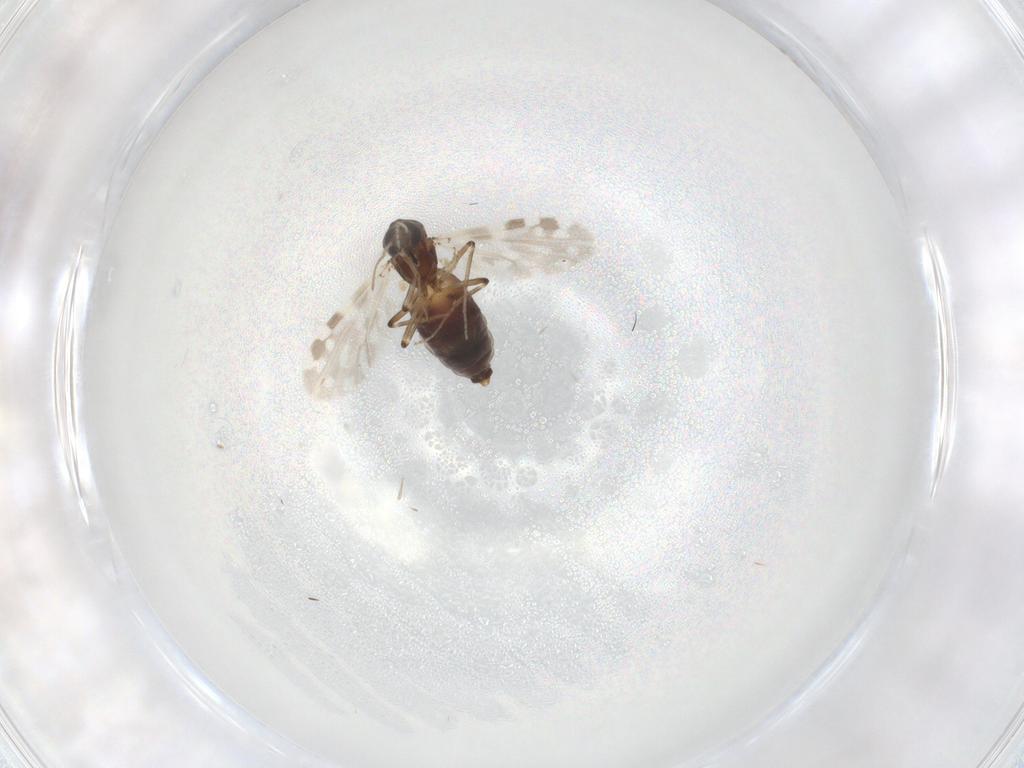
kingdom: Animalia
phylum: Arthropoda
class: Insecta
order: Diptera
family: Ceratopogonidae
